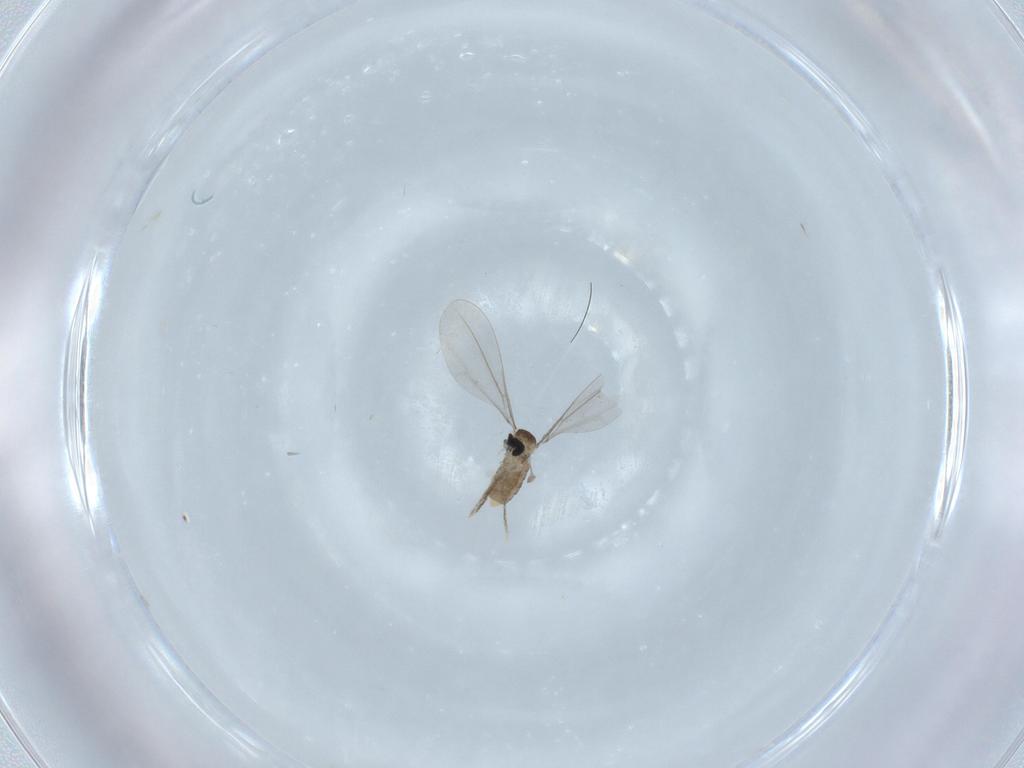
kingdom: Animalia
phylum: Arthropoda
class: Insecta
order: Diptera
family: Cecidomyiidae
